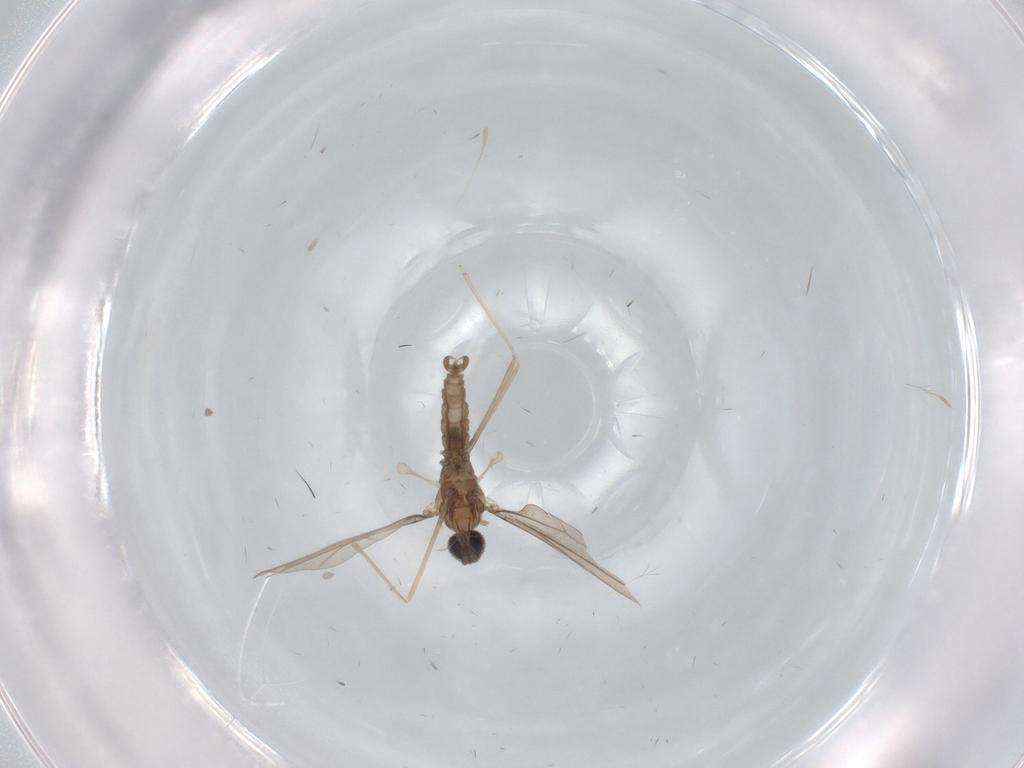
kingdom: Animalia
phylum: Arthropoda
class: Insecta
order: Diptera
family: Cecidomyiidae
